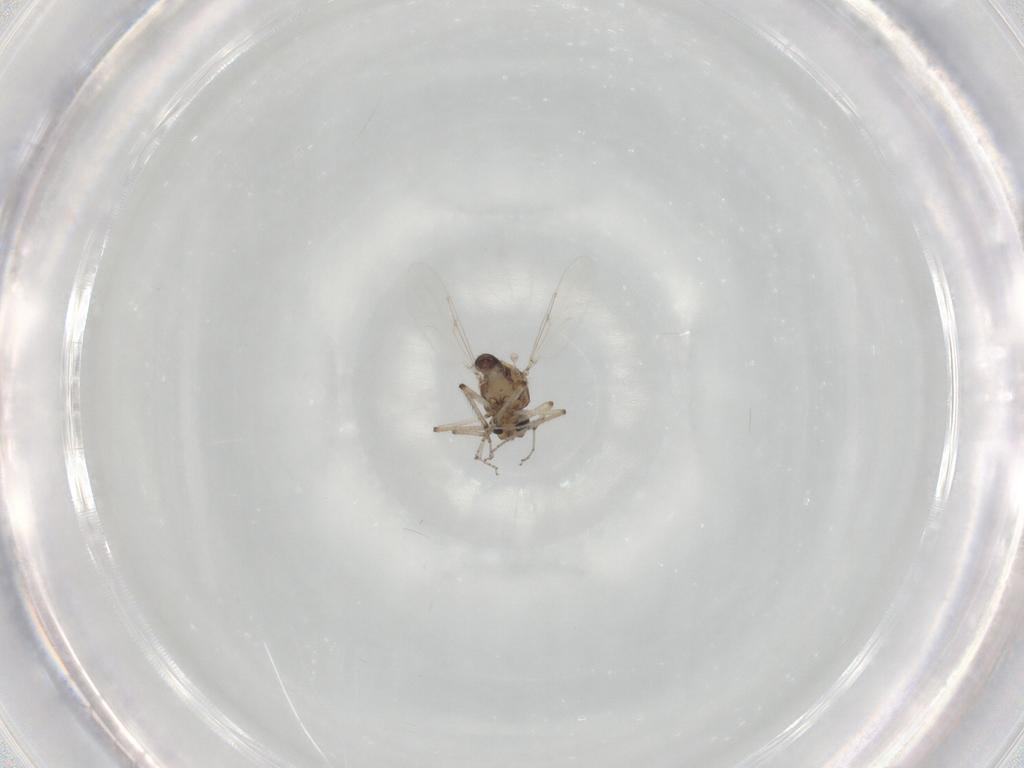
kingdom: Animalia
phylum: Arthropoda
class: Insecta
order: Diptera
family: Ceratopogonidae
